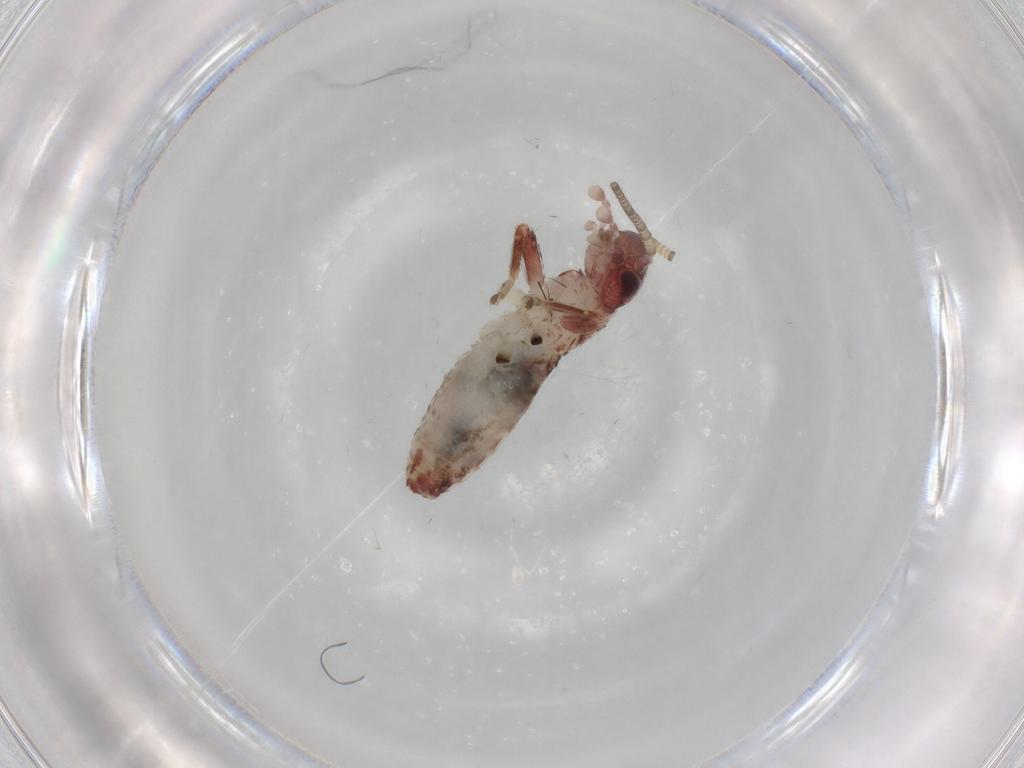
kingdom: Animalia
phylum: Arthropoda
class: Insecta
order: Orthoptera
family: Mogoplistidae
